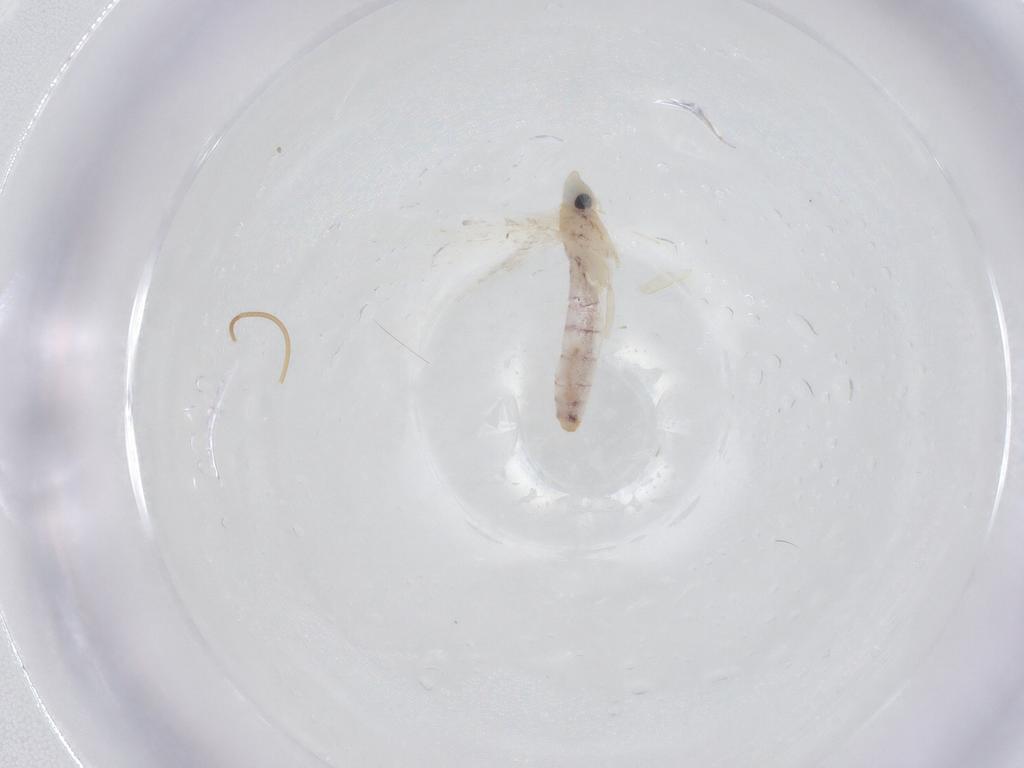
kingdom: Animalia
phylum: Arthropoda
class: Insecta
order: Lepidoptera
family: Erebidae
